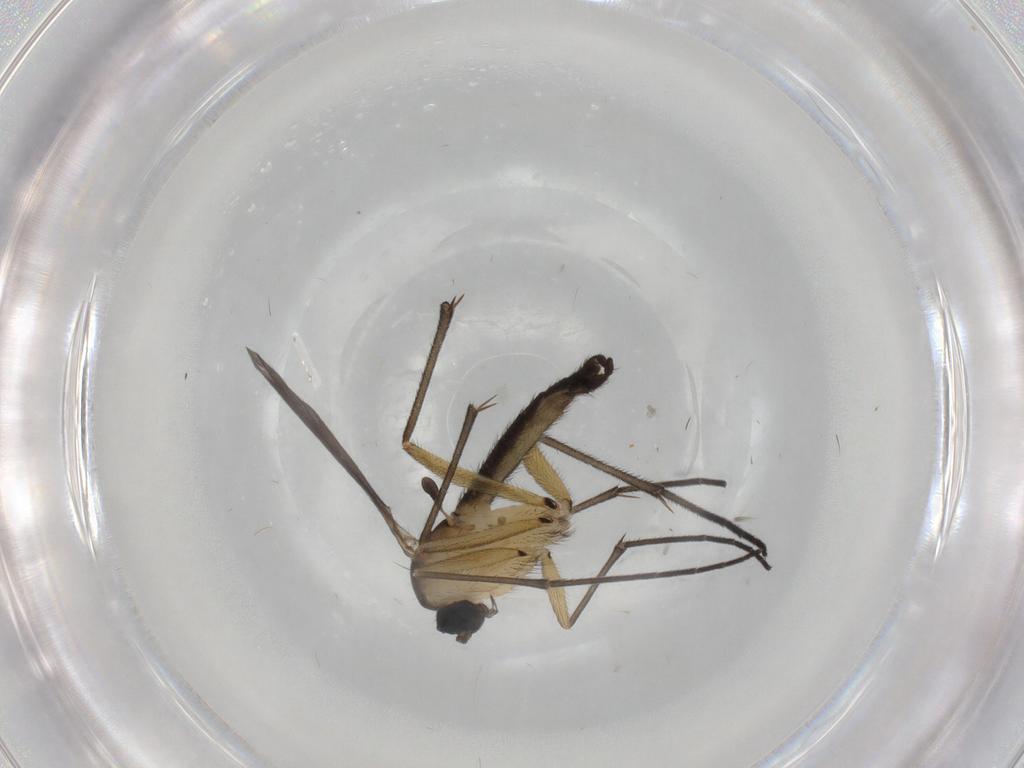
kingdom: Animalia
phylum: Arthropoda
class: Insecta
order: Diptera
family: Sciaridae
